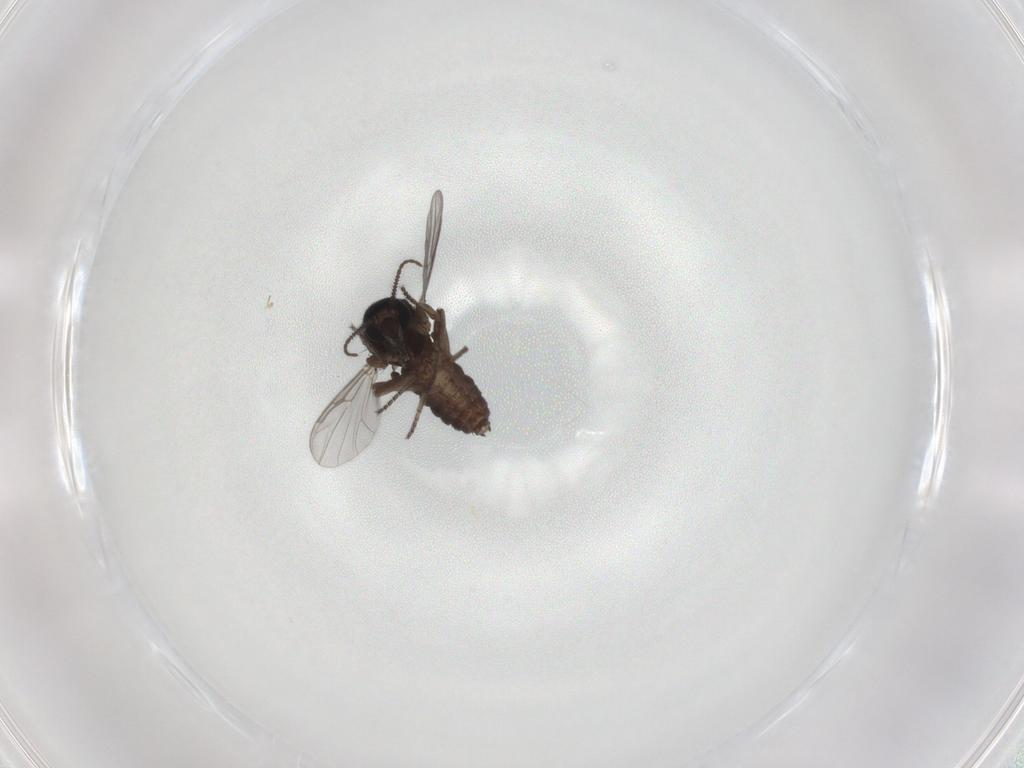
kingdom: Animalia
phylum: Arthropoda
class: Insecta
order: Diptera
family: Ceratopogonidae
